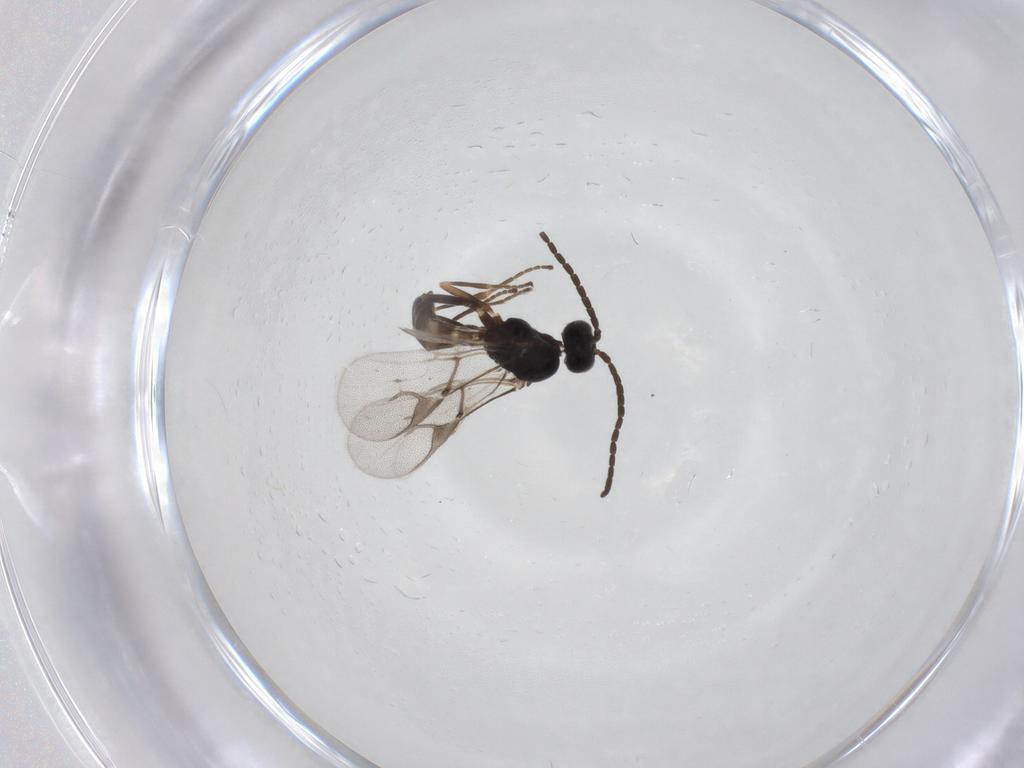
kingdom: Animalia
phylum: Arthropoda
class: Insecta
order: Hymenoptera
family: Braconidae
